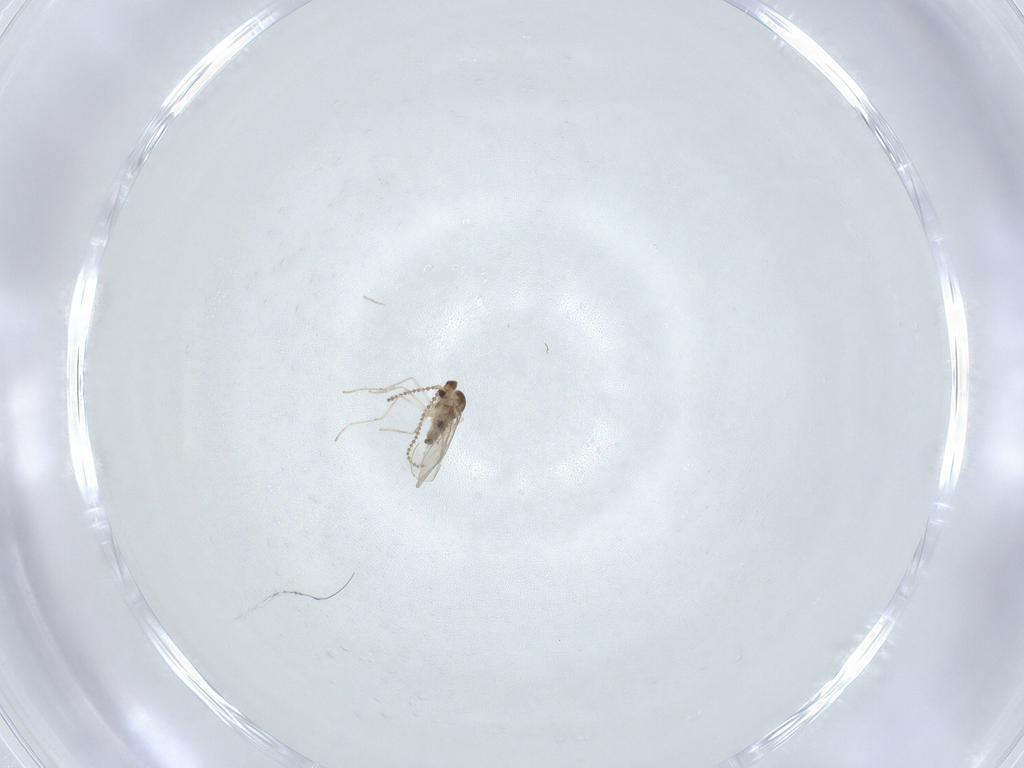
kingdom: Animalia
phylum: Arthropoda
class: Insecta
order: Diptera
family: Cecidomyiidae
